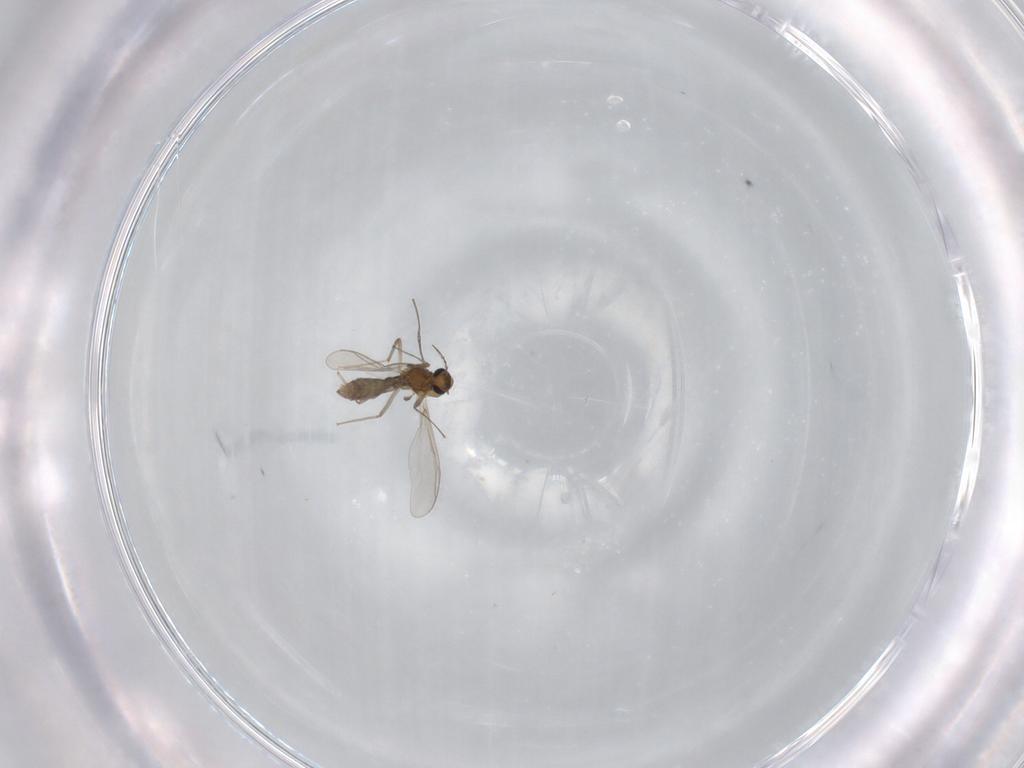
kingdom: Animalia
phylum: Arthropoda
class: Insecta
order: Diptera
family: Chironomidae
